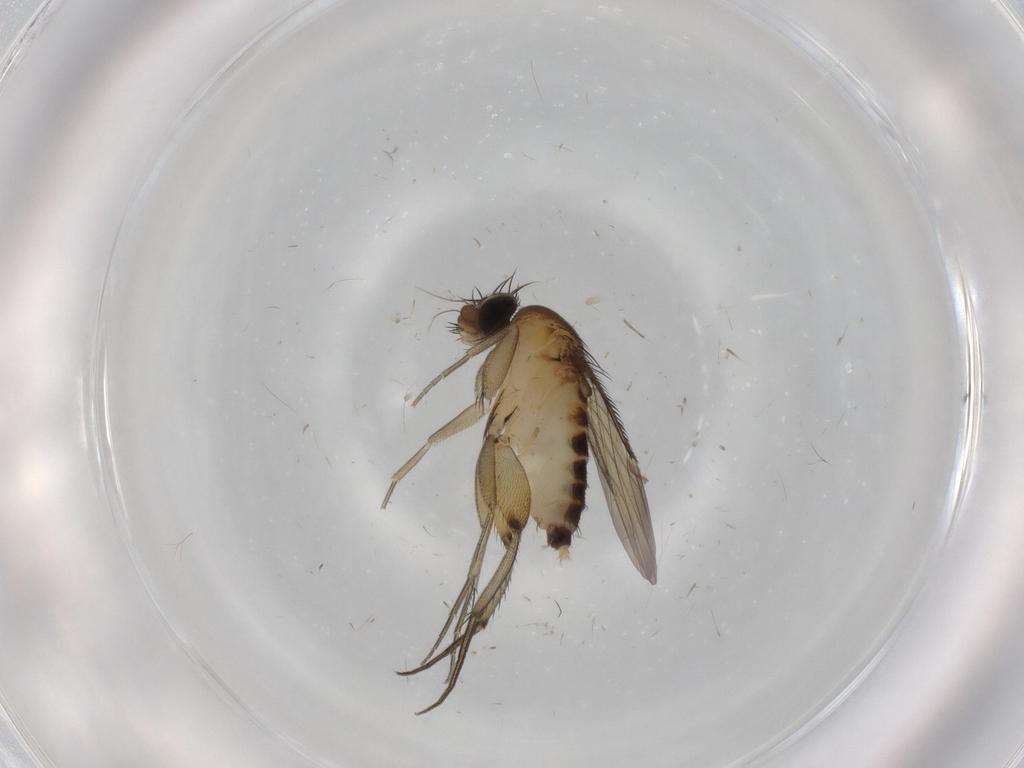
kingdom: Animalia
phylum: Arthropoda
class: Insecta
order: Diptera
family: Phoridae
